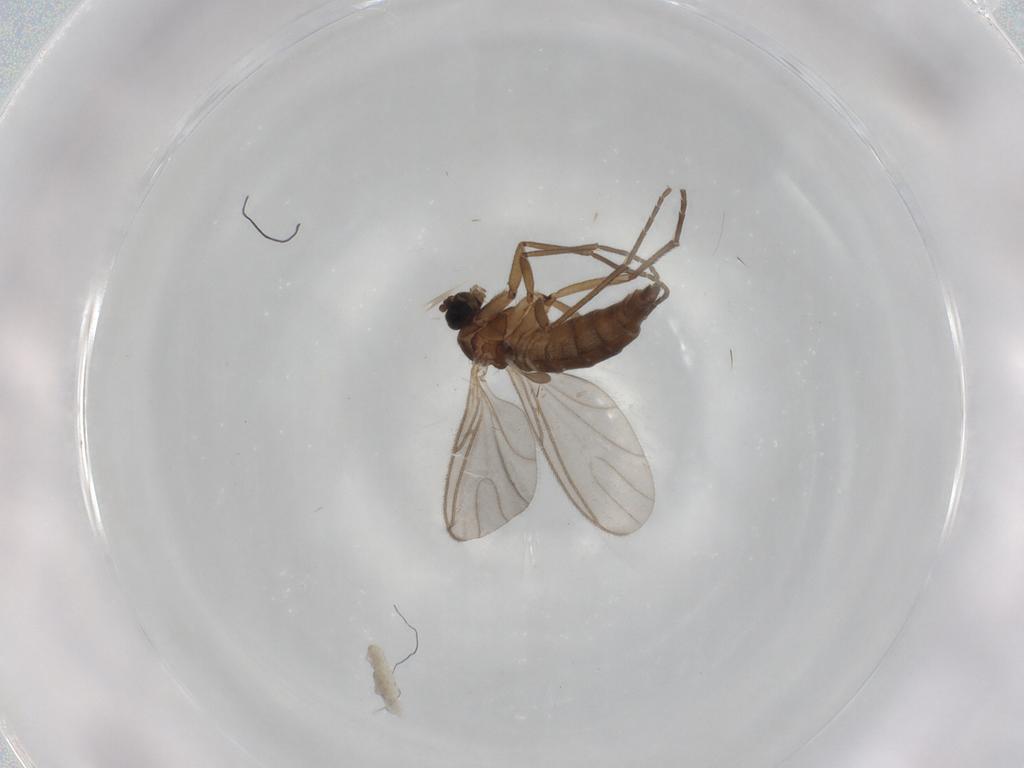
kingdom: Animalia
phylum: Arthropoda
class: Insecta
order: Diptera
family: Sciaridae
